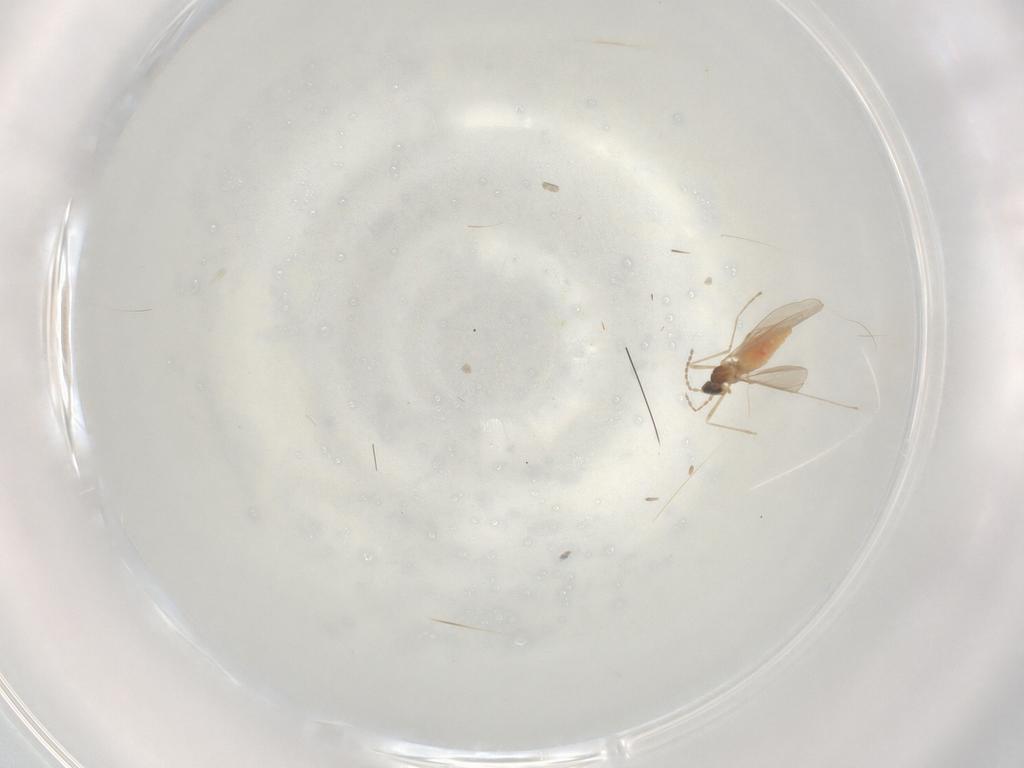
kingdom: Animalia
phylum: Arthropoda
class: Insecta
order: Diptera
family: Cecidomyiidae
